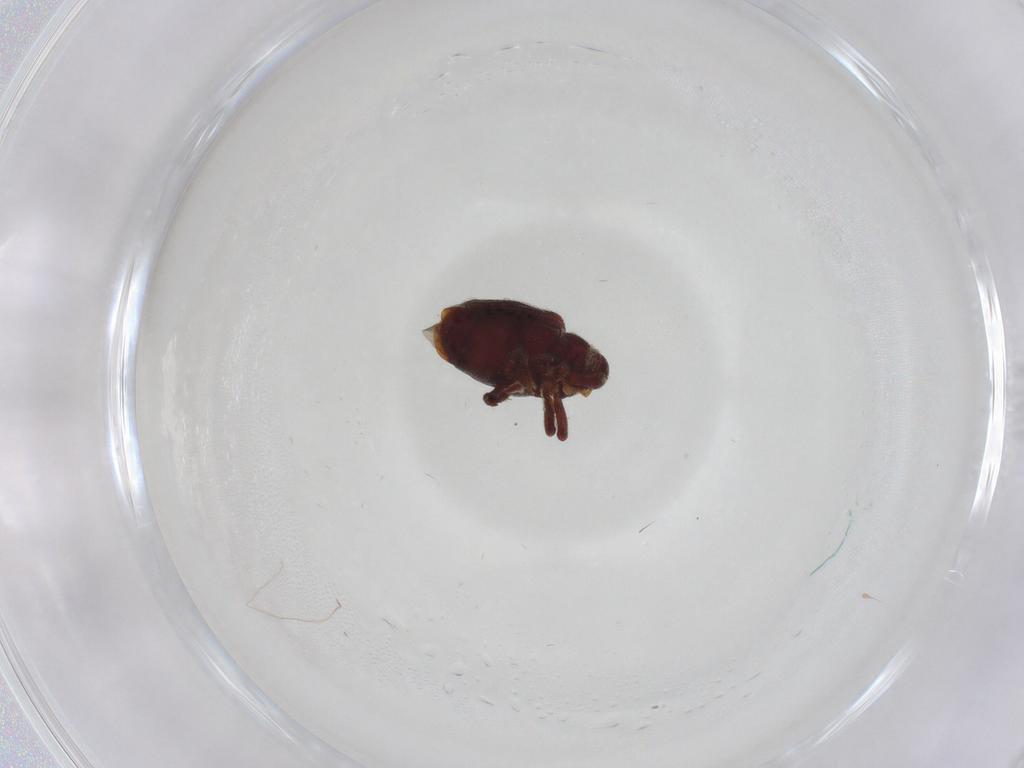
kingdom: Animalia
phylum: Arthropoda
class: Insecta
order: Coleoptera
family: Curculionidae
